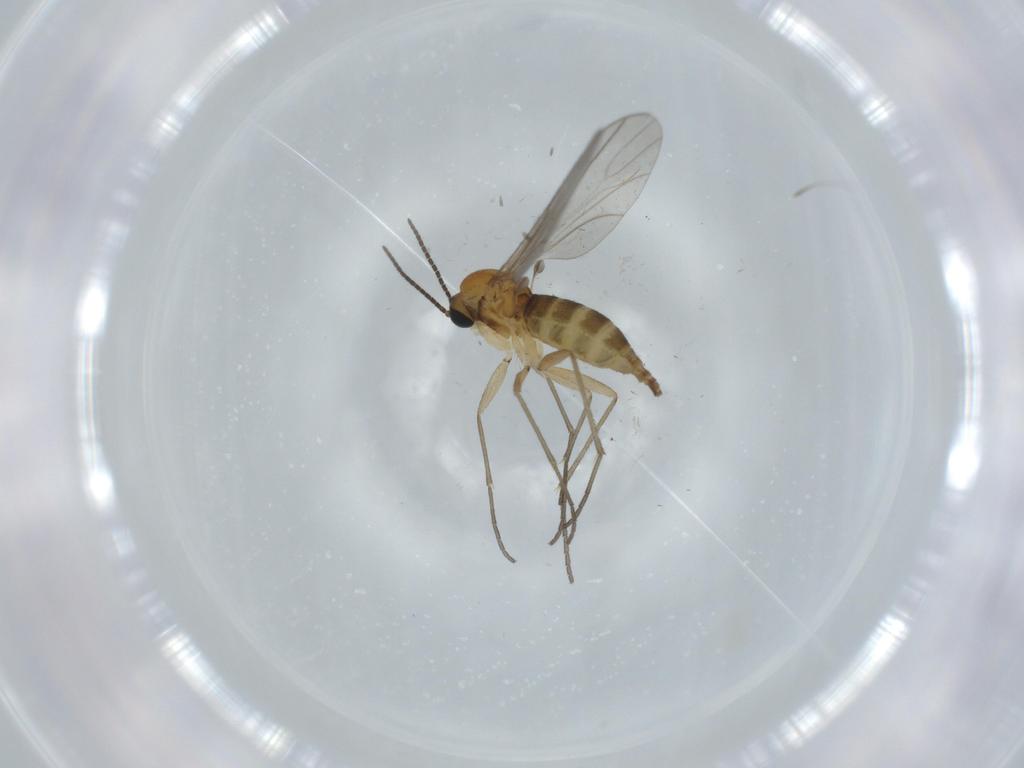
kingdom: Animalia
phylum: Arthropoda
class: Insecta
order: Diptera
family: Sciaridae
